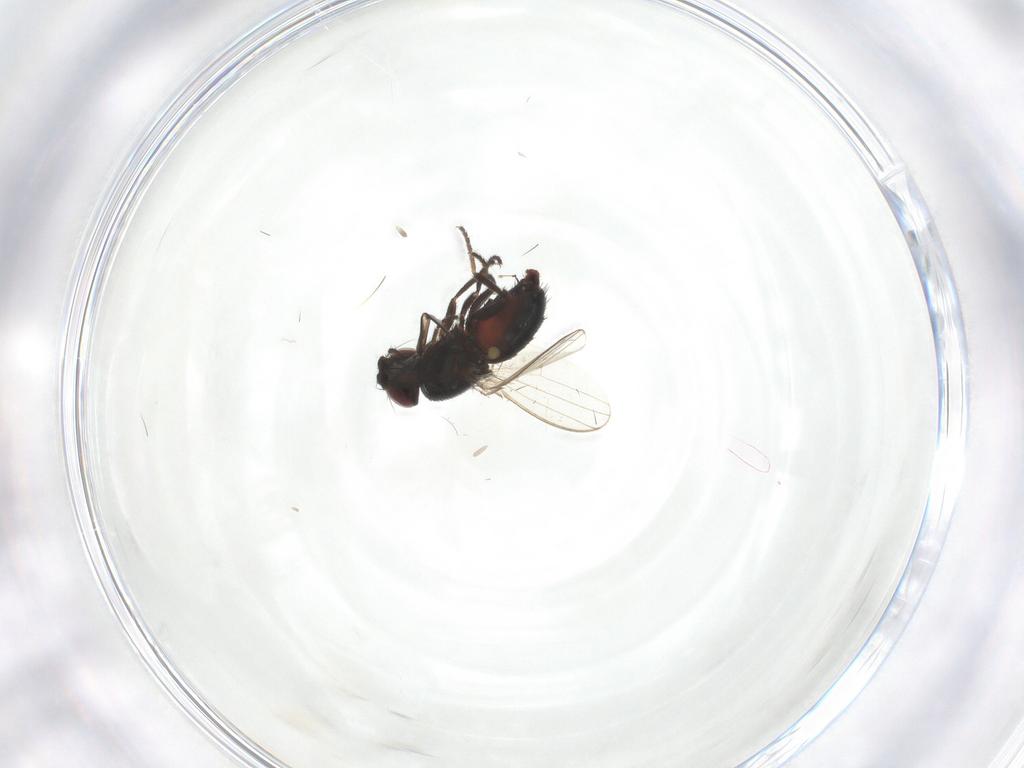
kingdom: Animalia
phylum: Arthropoda
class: Insecta
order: Diptera
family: Milichiidae
